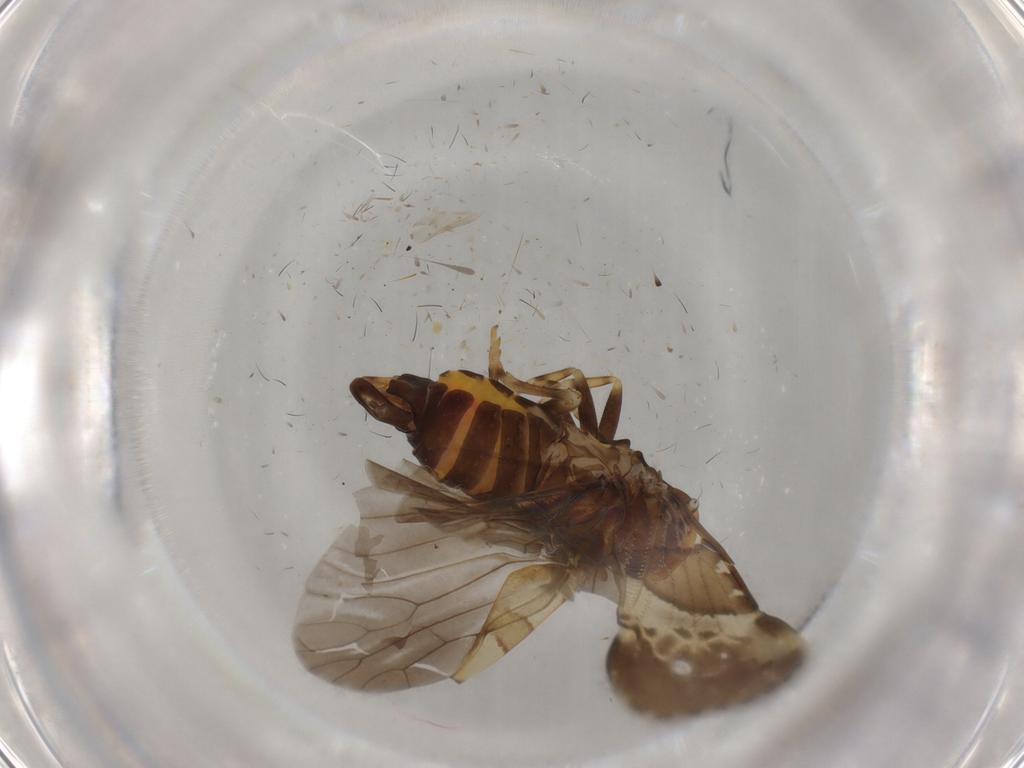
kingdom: Animalia
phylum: Arthropoda
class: Insecta
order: Hemiptera
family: Cixiidae
